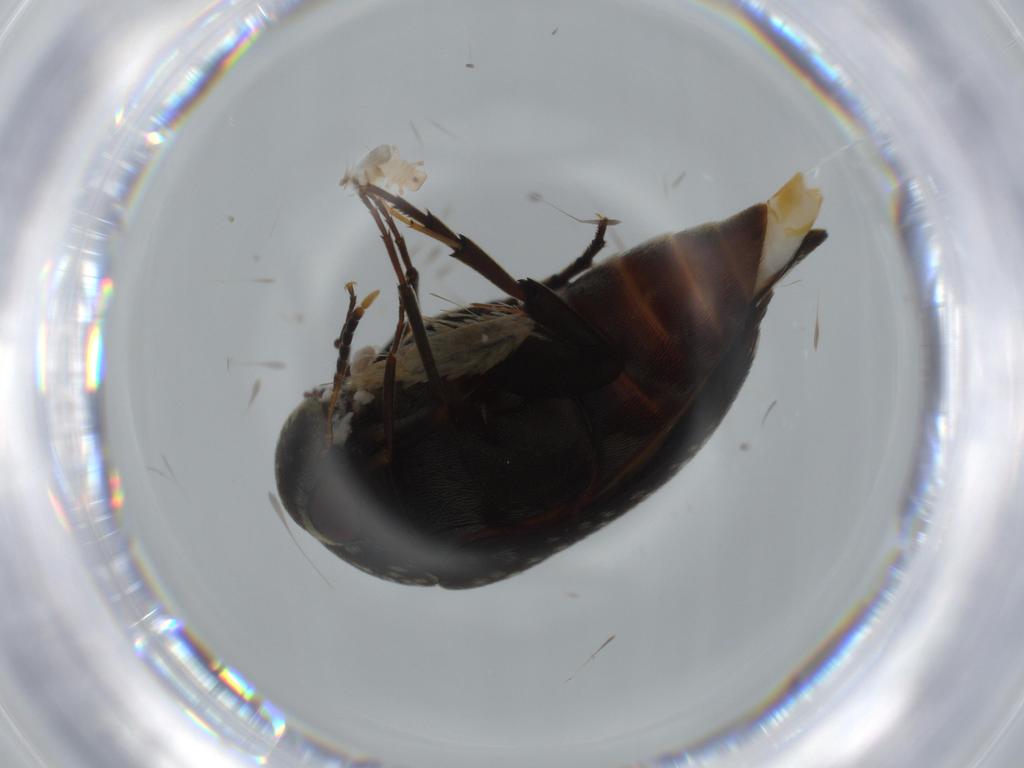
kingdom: Animalia
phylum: Arthropoda
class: Insecta
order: Coleoptera
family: Mordellidae
